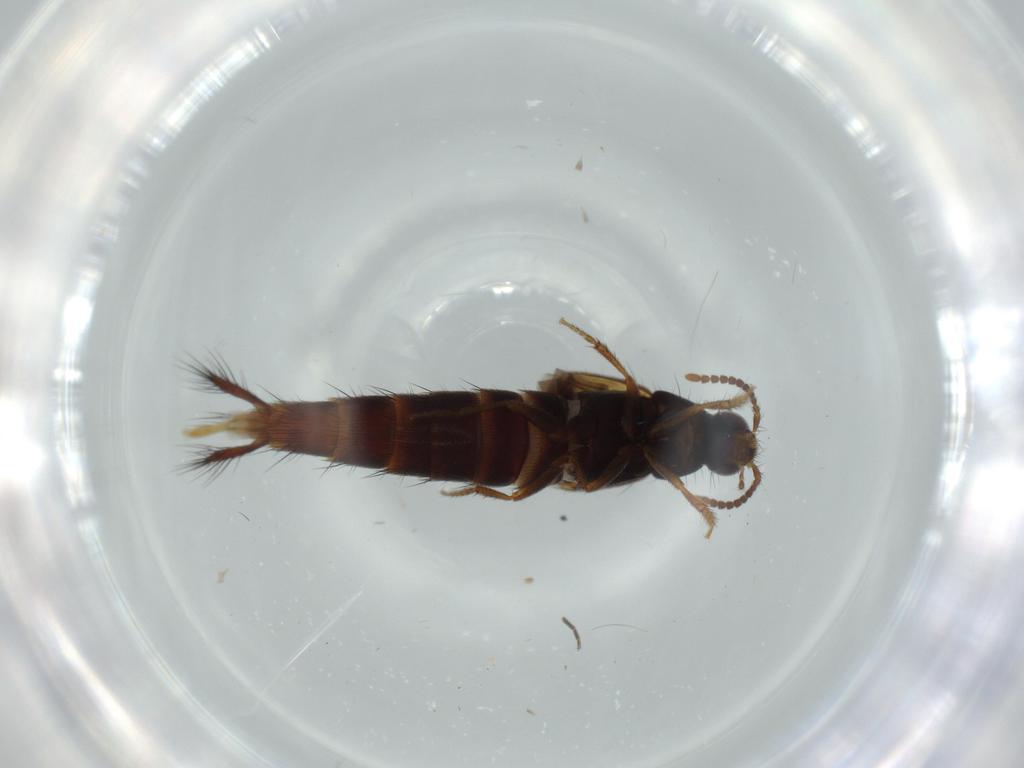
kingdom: Animalia
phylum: Arthropoda
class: Insecta
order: Coleoptera
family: Staphylinidae
